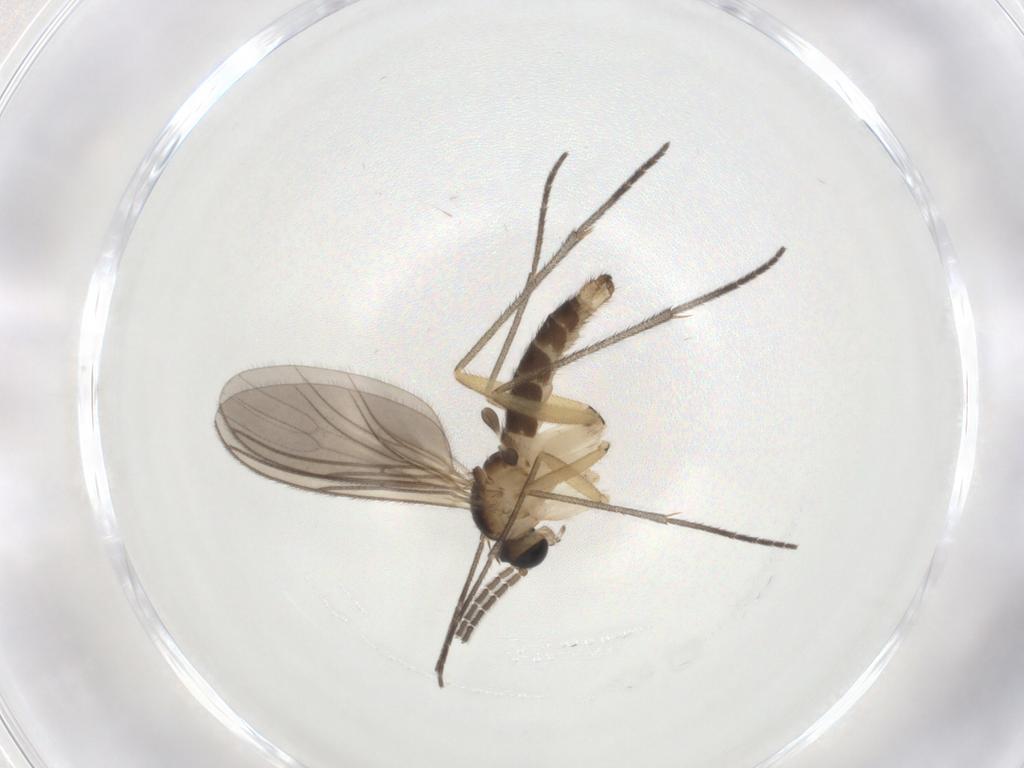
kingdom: Animalia
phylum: Arthropoda
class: Insecta
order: Diptera
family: Sciaridae
